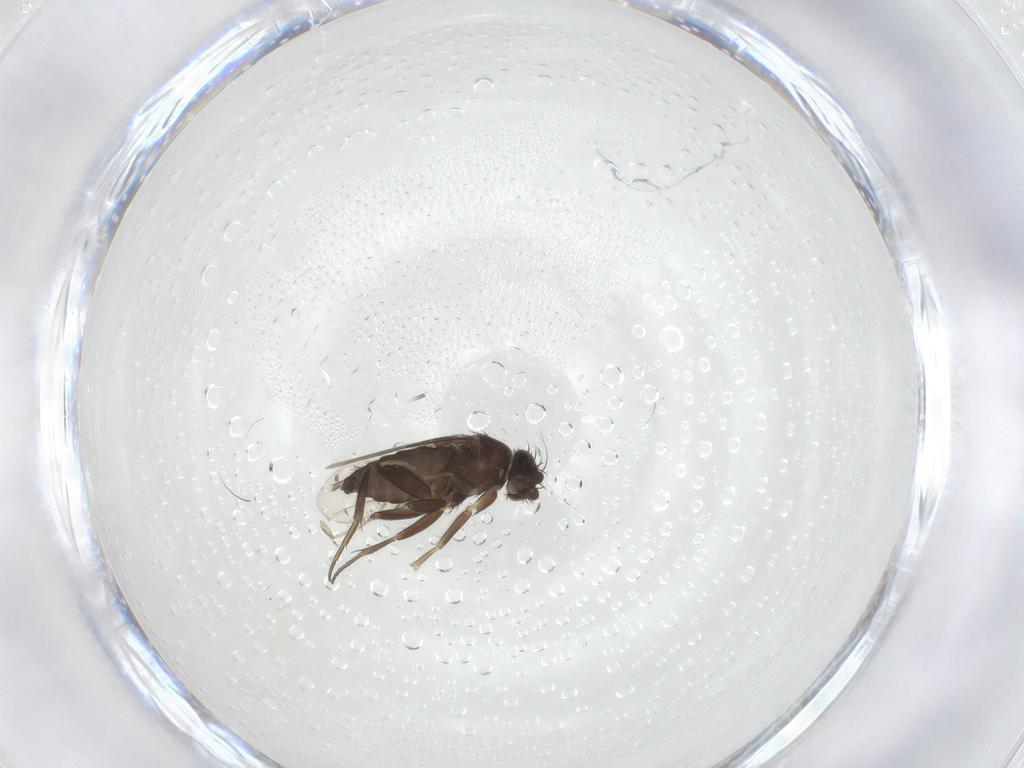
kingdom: Animalia
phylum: Arthropoda
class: Insecta
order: Diptera
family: Phoridae
